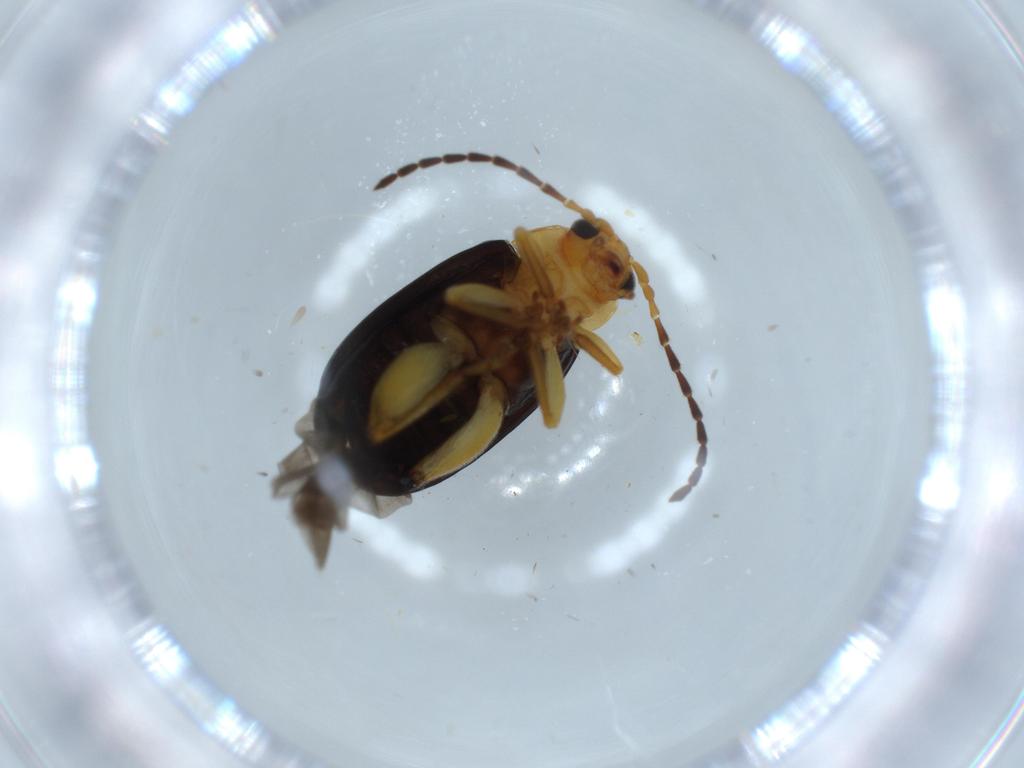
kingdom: Animalia
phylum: Arthropoda
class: Insecta
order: Coleoptera
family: Chrysomelidae
